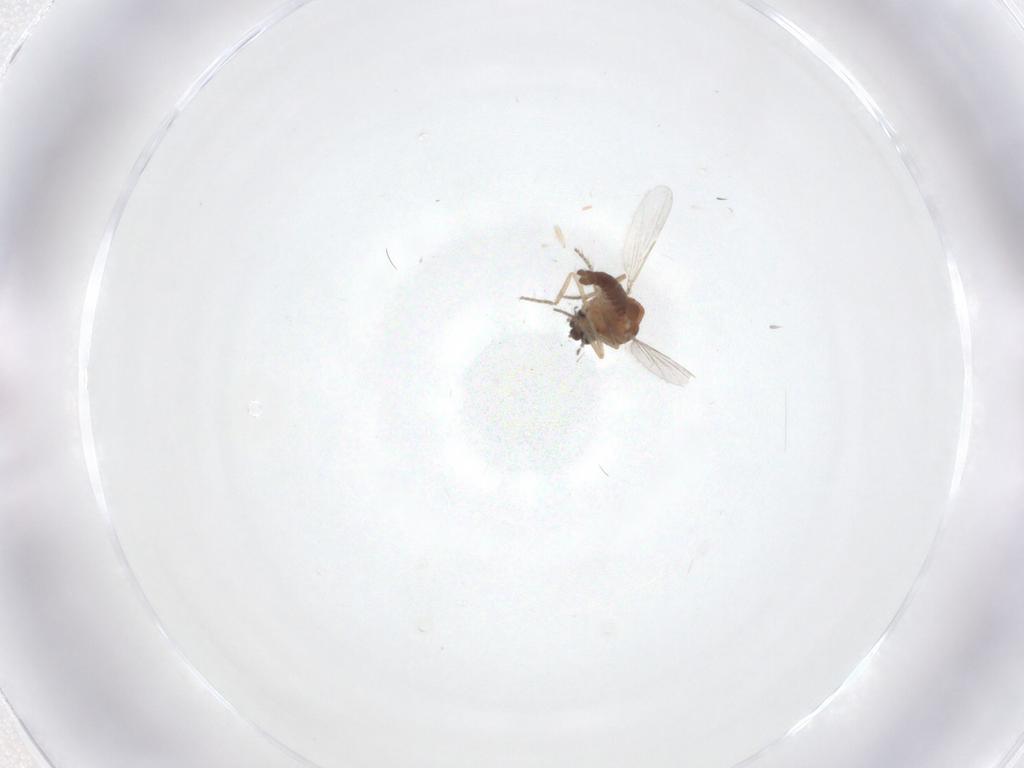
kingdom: Animalia
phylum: Arthropoda
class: Insecta
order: Diptera
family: Ceratopogonidae
